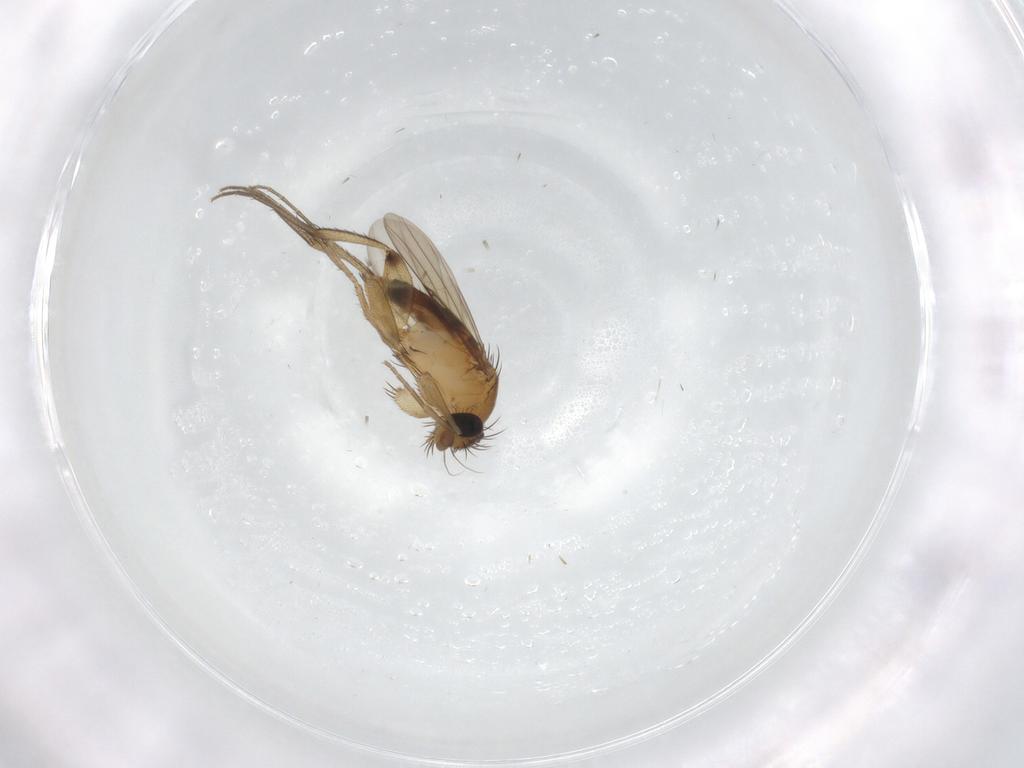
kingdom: Animalia
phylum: Arthropoda
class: Insecta
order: Diptera
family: Phoridae
